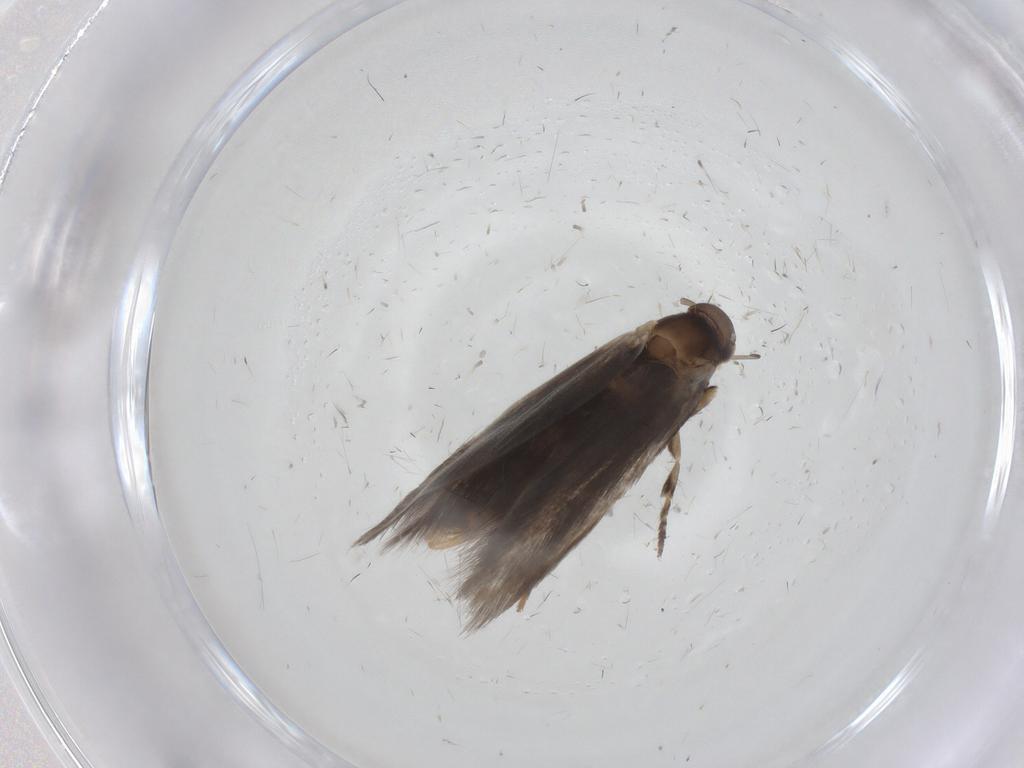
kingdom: Animalia
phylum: Arthropoda
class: Insecta
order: Lepidoptera
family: Elachistidae
